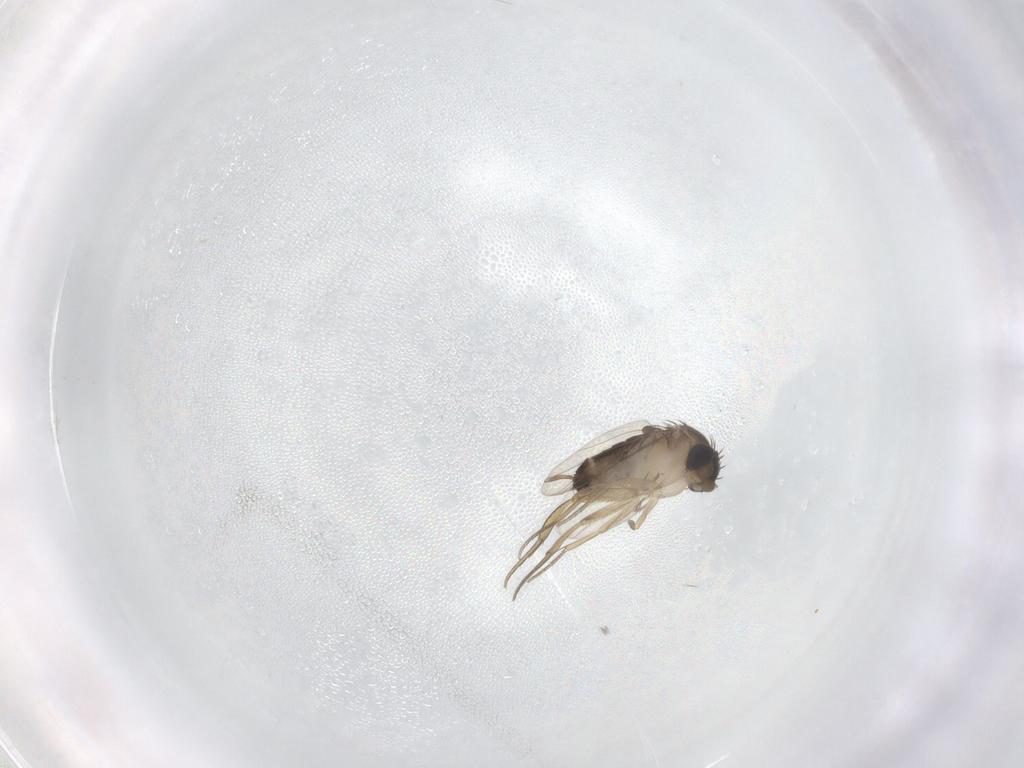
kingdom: Animalia
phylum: Arthropoda
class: Insecta
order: Diptera
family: Phoridae
